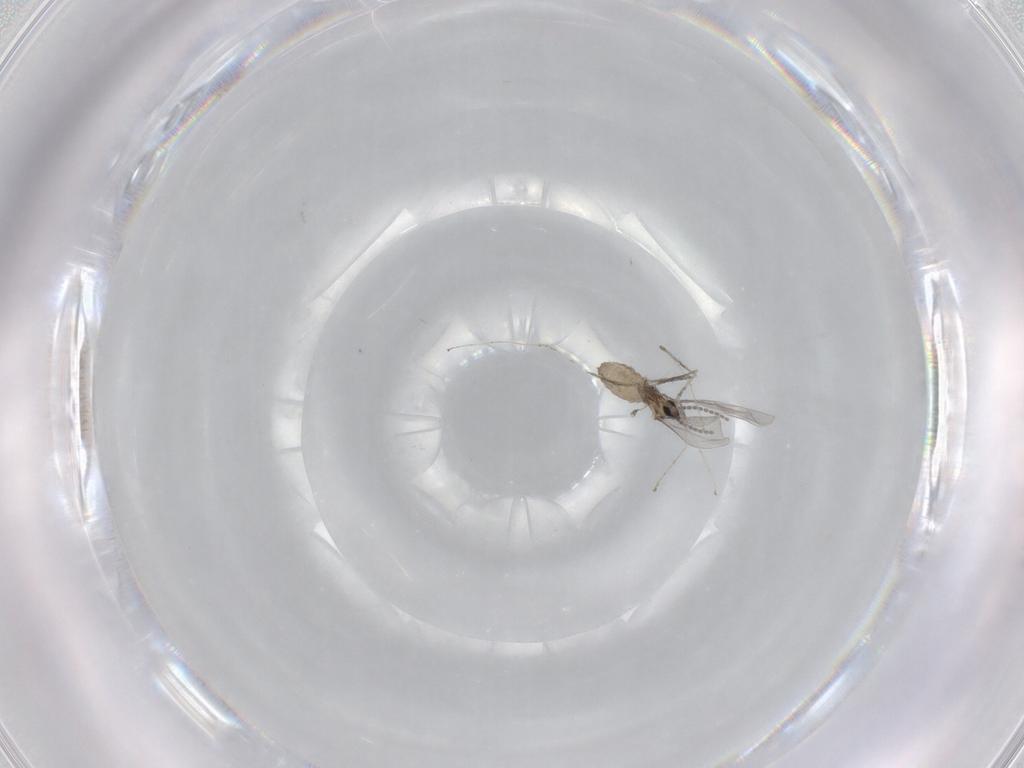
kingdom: Animalia
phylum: Arthropoda
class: Insecta
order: Diptera
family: Cecidomyiidae
